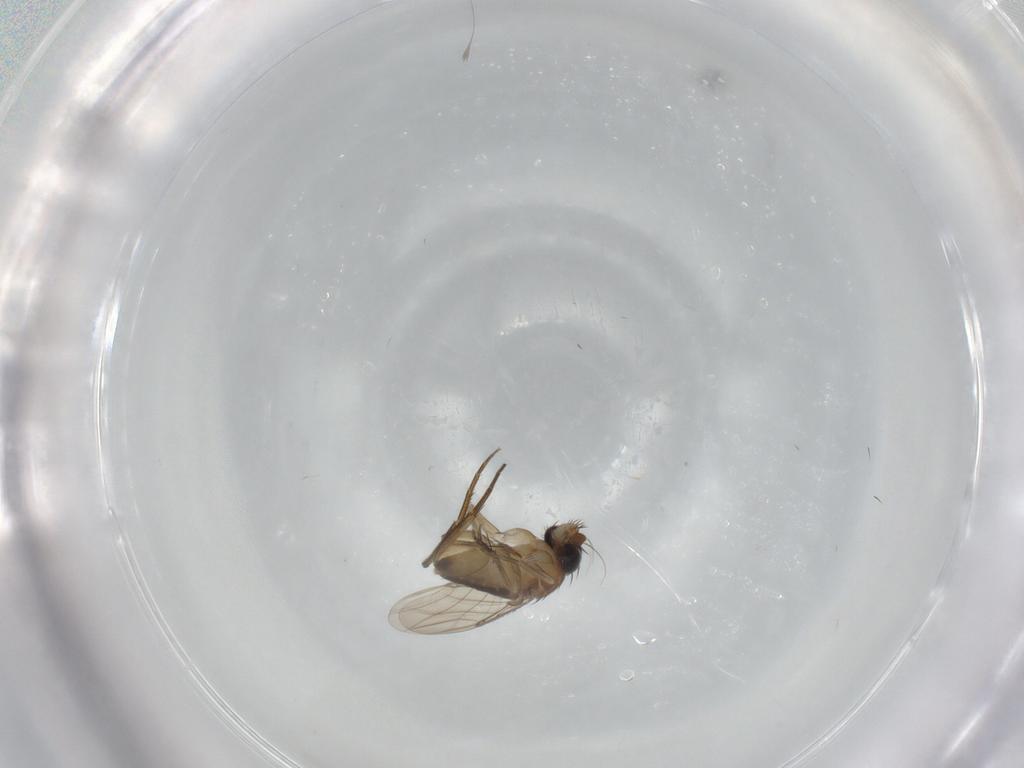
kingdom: Animalia
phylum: Arthropoda
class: Insecta
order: Diptera
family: Phoridae
